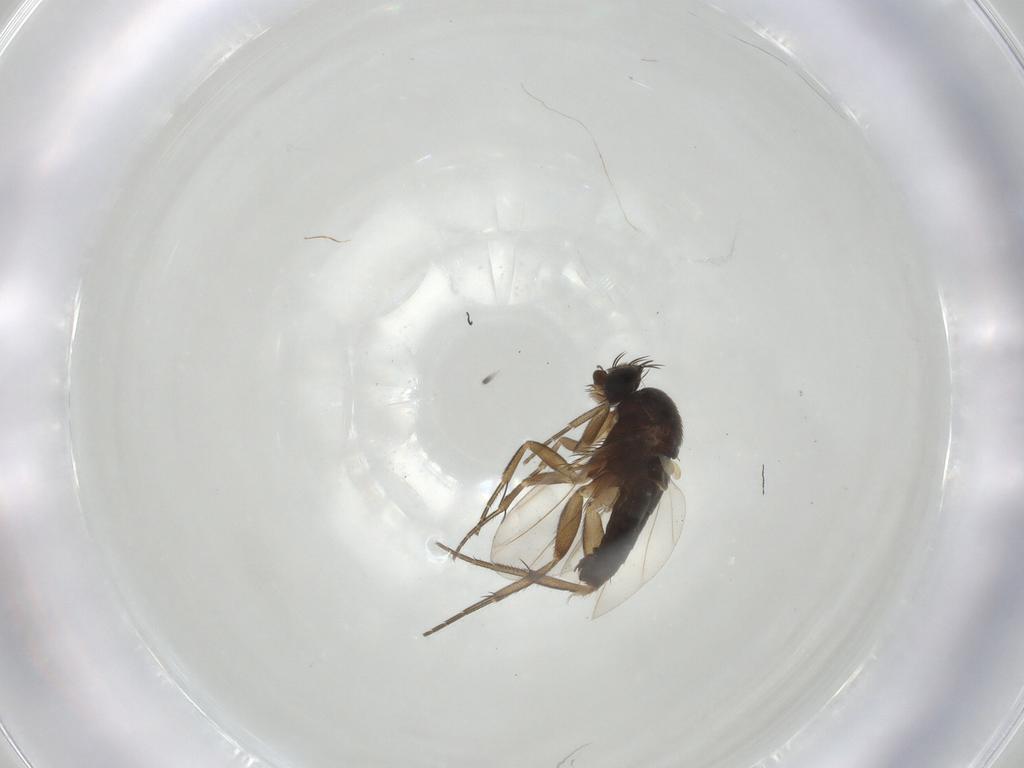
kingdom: Animalia
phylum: Arthropoda
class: Insecta
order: Diptera
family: Phoridae
